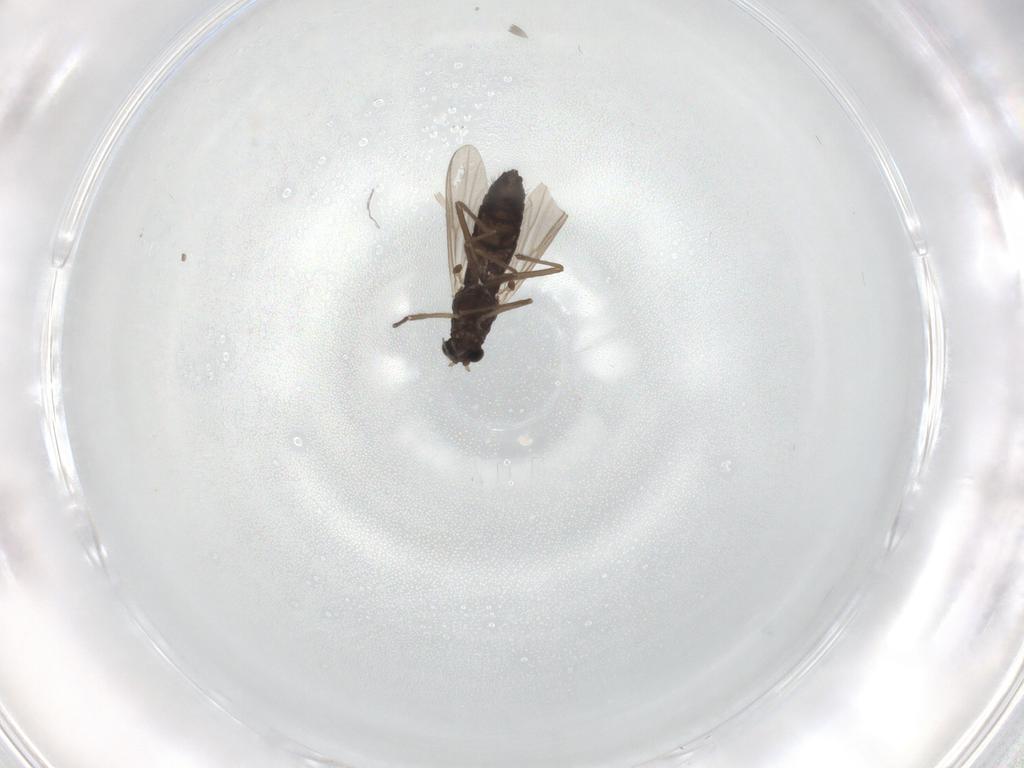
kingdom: Animalia
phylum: Arthropoda
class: Insecta
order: Diptera
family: Chironomidae
